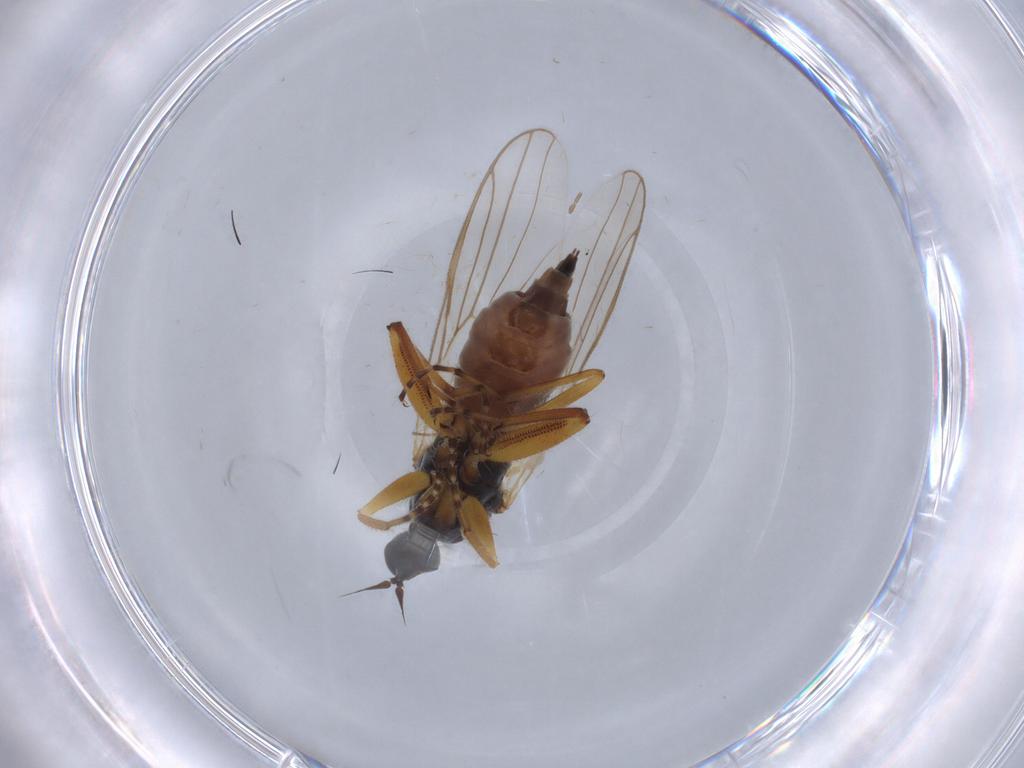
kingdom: Animalia
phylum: Arthropoda
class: Insecta
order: Diptera
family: Hybotidae
